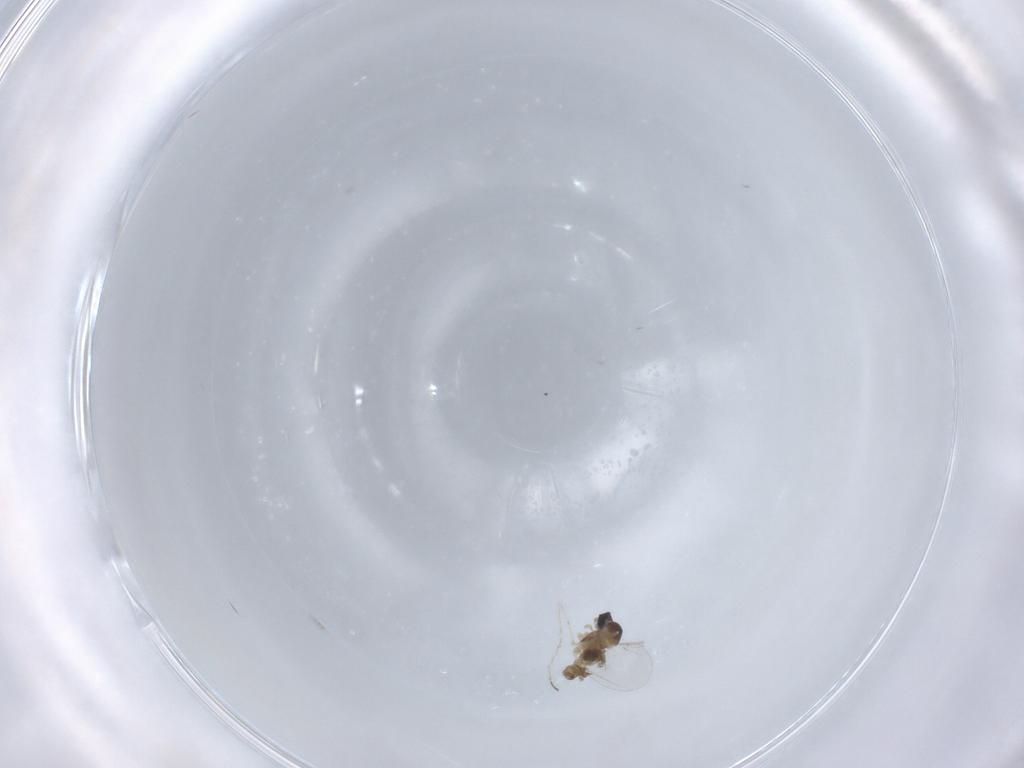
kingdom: Animalia
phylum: Arthropoda
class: Insecta
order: Diptera
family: Cecidomyiidae
